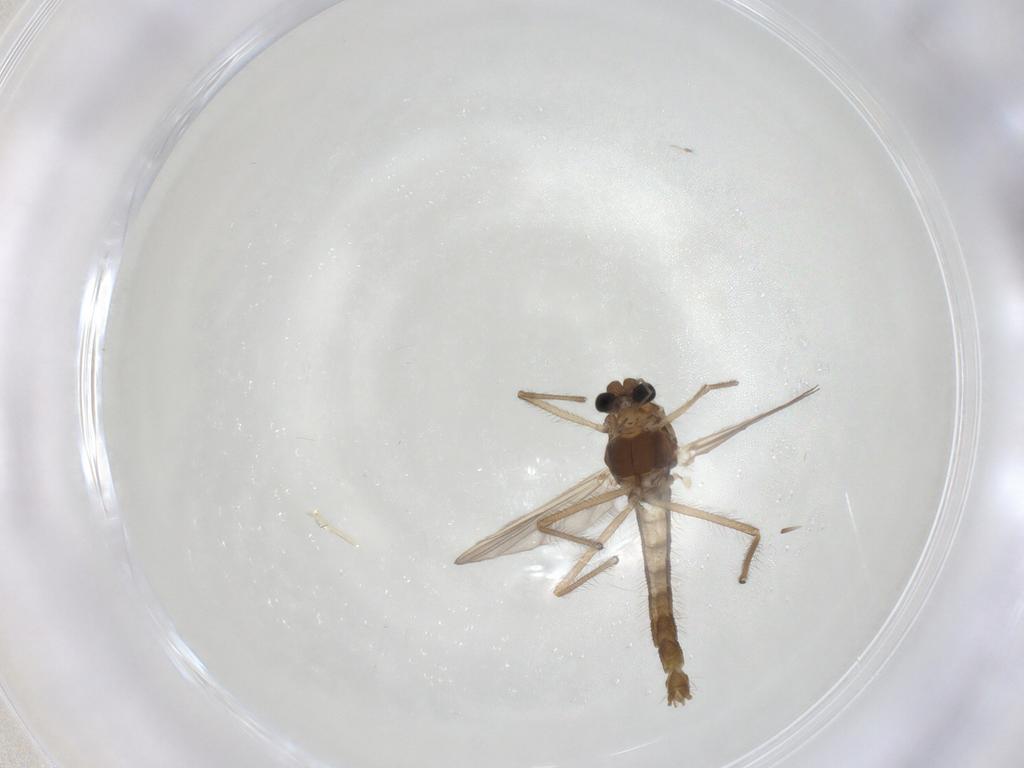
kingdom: Animalia
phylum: Arthropoda
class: Insecta
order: Diptera
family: Chironomidae
